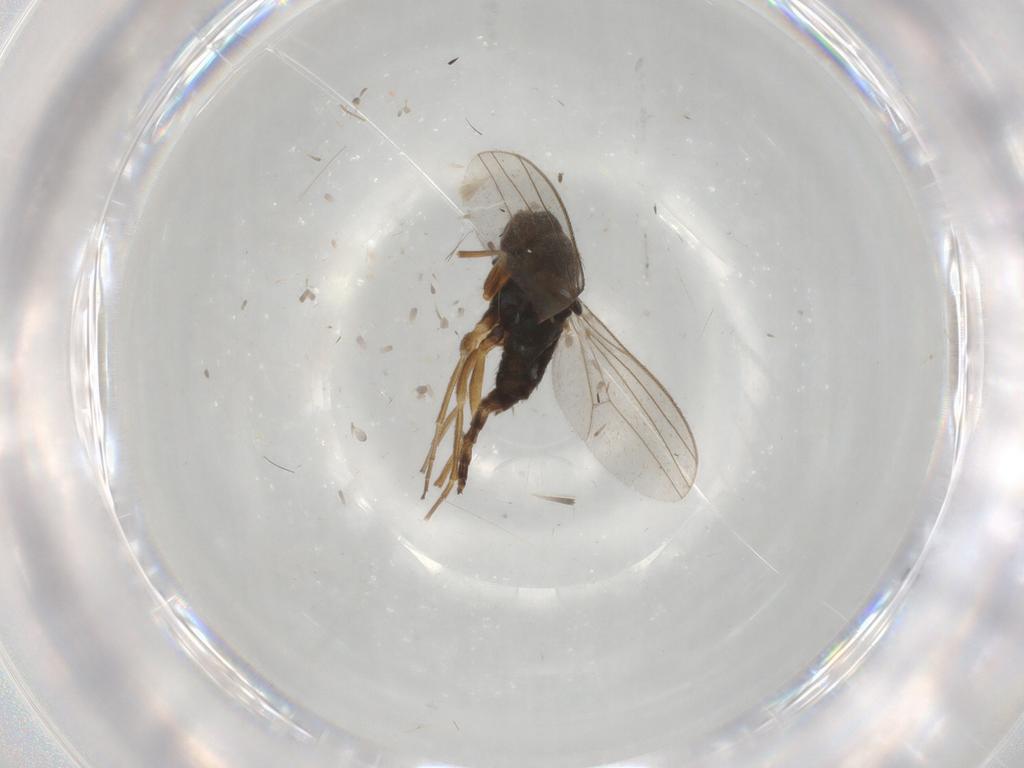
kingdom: Animalia
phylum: Arthropoda
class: Insecta
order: Diptera
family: Dolichopodidae
